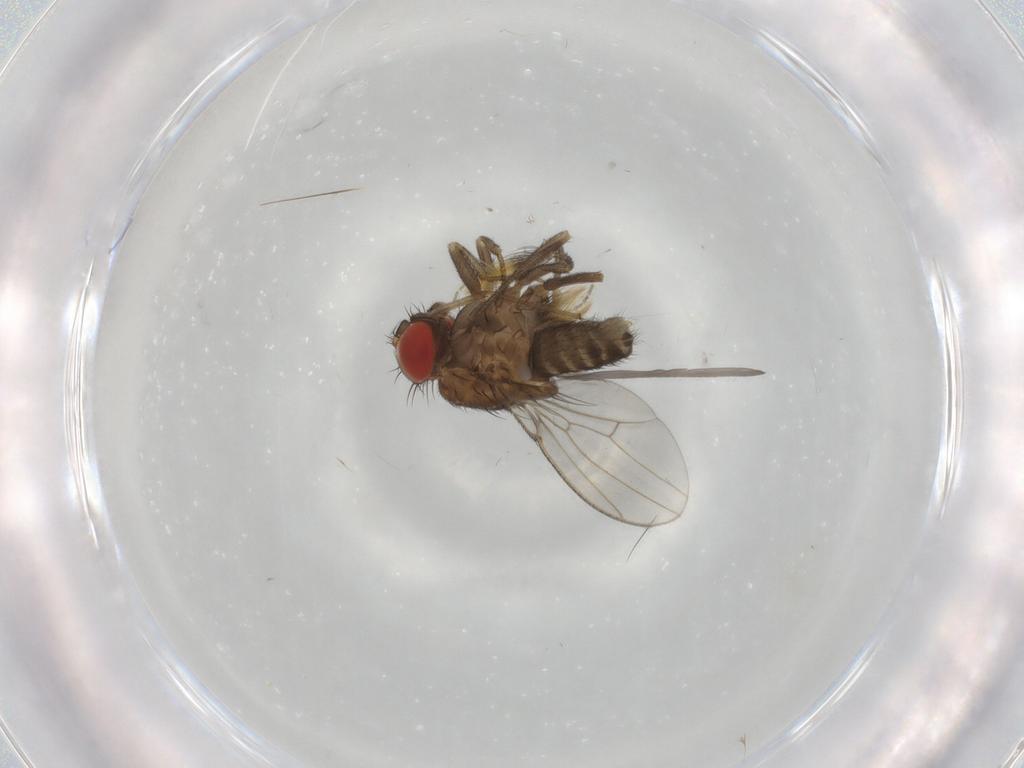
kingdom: Animalia
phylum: Arthropoda
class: Insecta
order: Diptera
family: Drosophilidae
